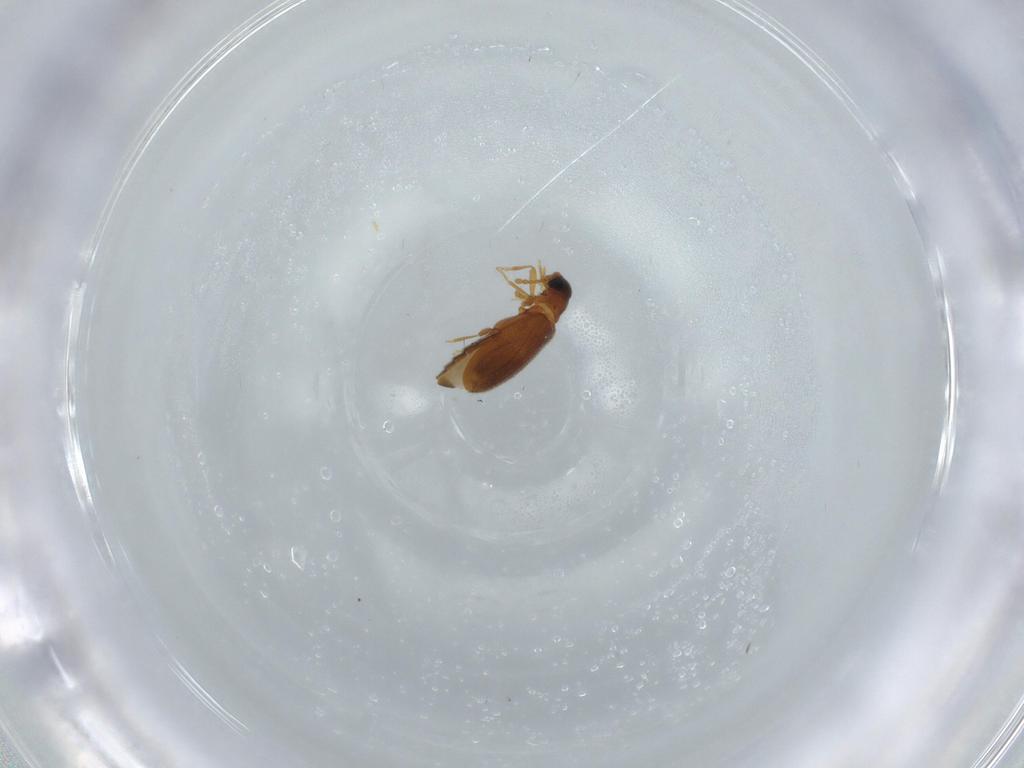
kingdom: Animalia
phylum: Arthropoda
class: Insecta
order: Coleoptera
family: Aderidae
